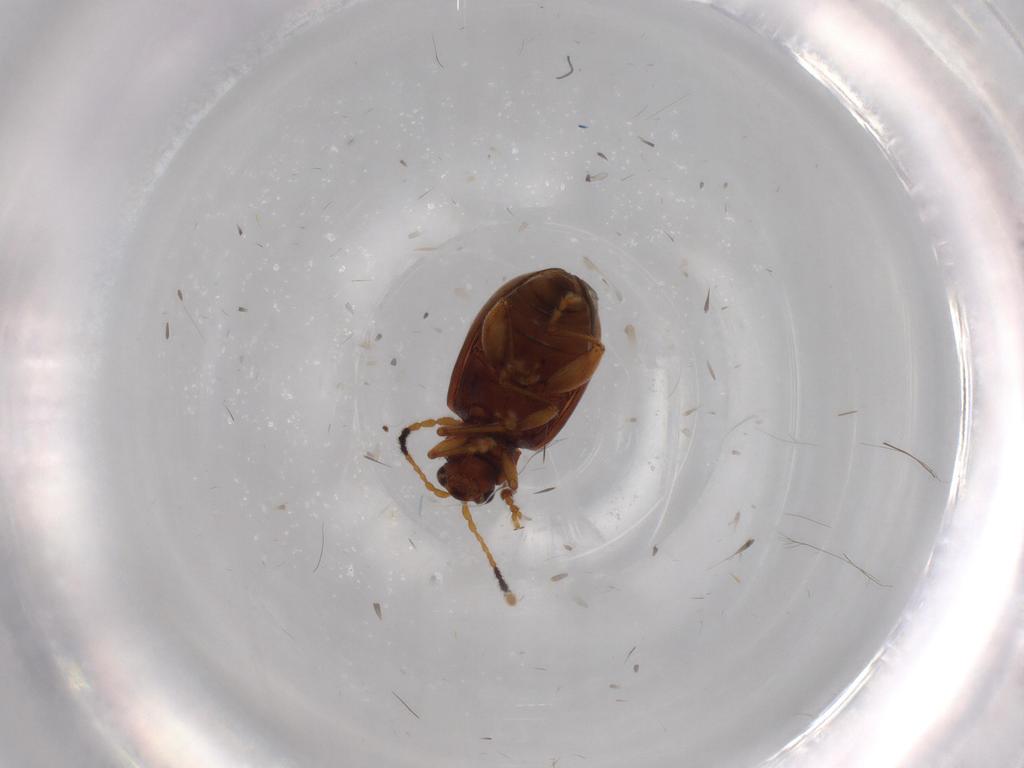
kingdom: Animalia
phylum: Arthropoda
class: Insecta
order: Coleoptera
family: Chrysomelidae
